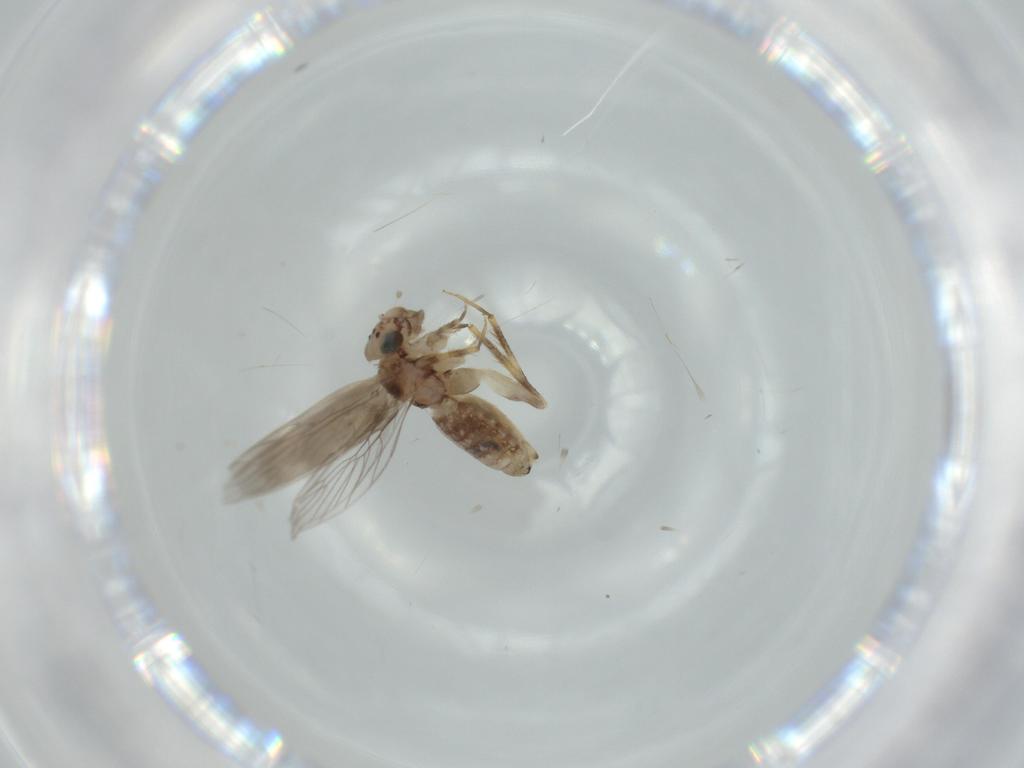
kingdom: Animalia
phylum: Arthropoda
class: Insecta
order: Psocodea
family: Lepidopsocidae
